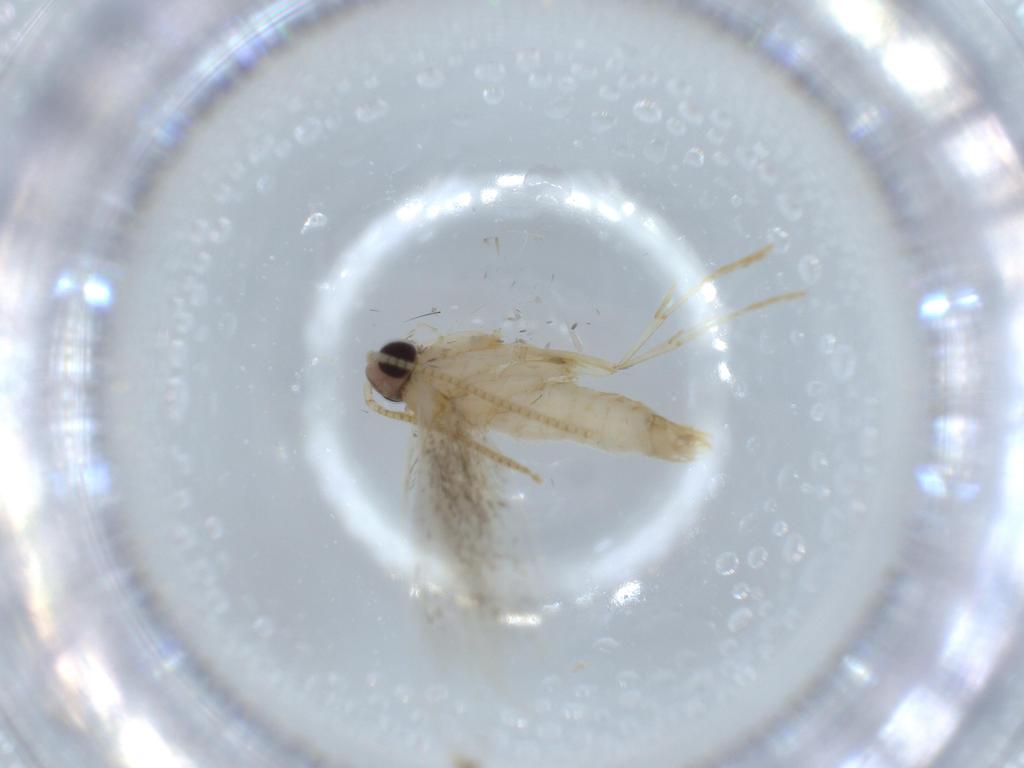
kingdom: Animalia
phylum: Arthropoda
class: Insecta
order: Lepidoptera
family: Tineidae
